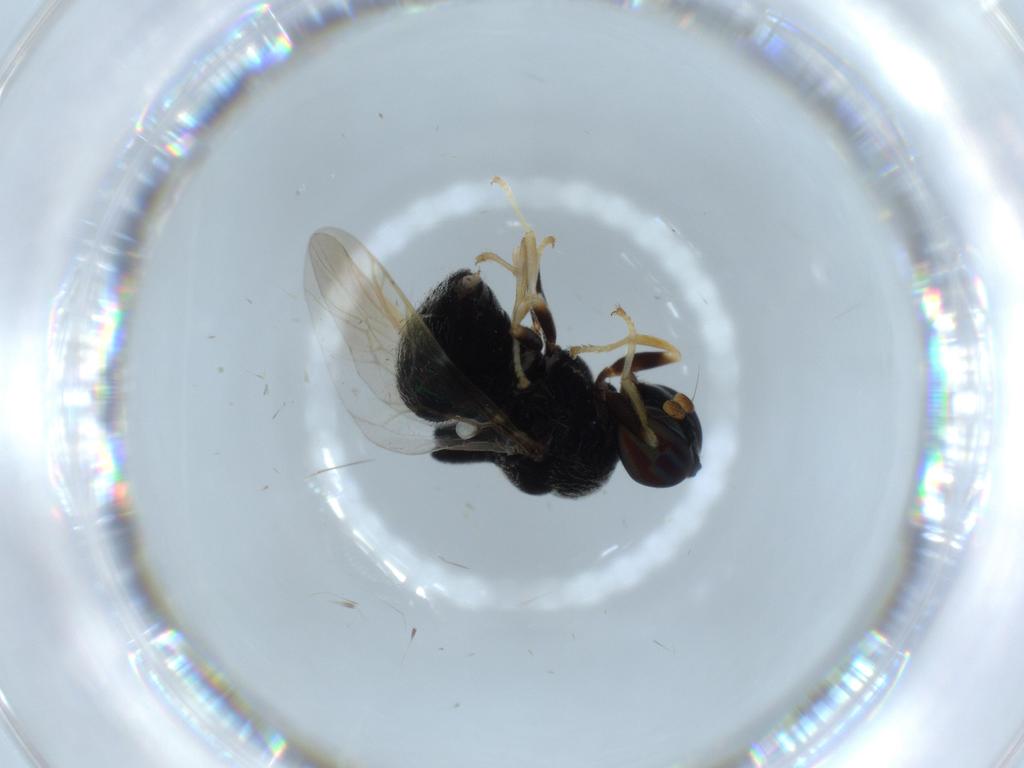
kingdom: Animalia
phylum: Arthropoda
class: Insecta
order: Diptera
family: Stratiomyidae
